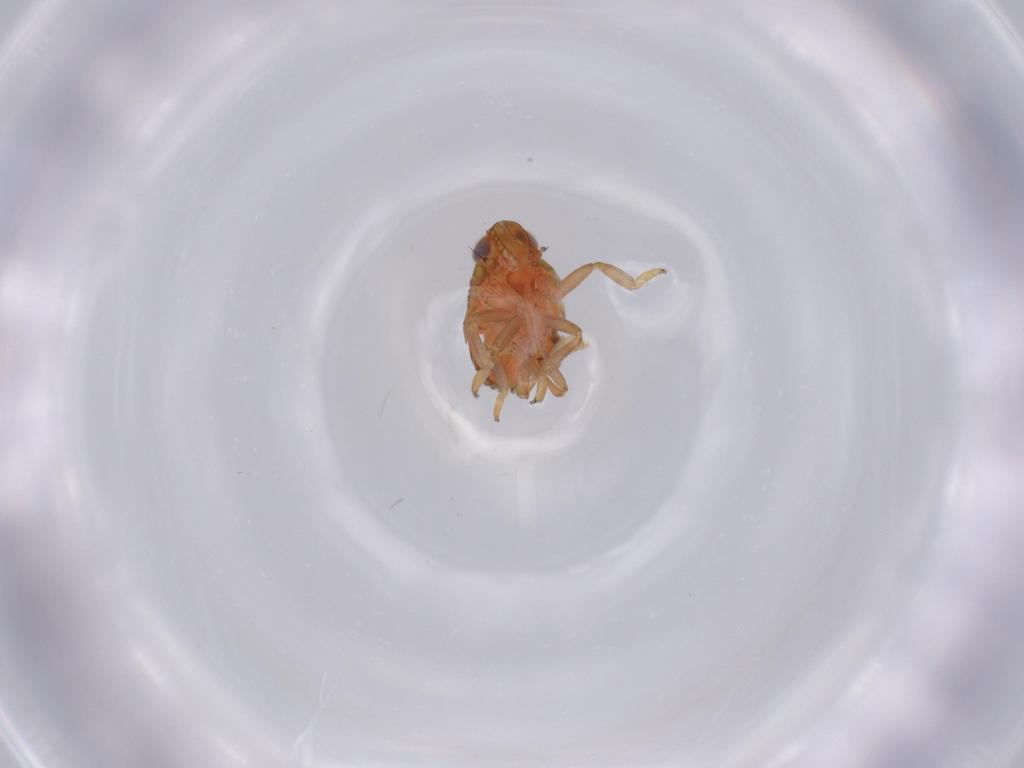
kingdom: Animalia
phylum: Arthropoda
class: Insecta
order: Hemiptera
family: Issidae
